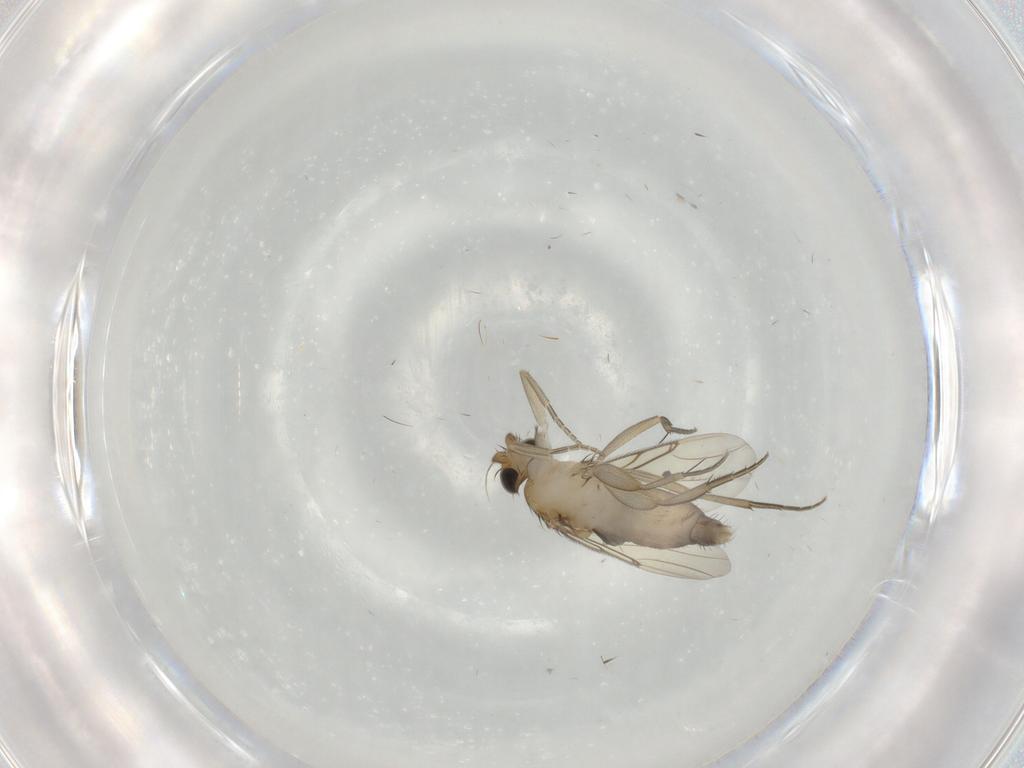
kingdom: Animalia
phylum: Arthropoda
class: Insecta
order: Diptera
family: Phoridae
